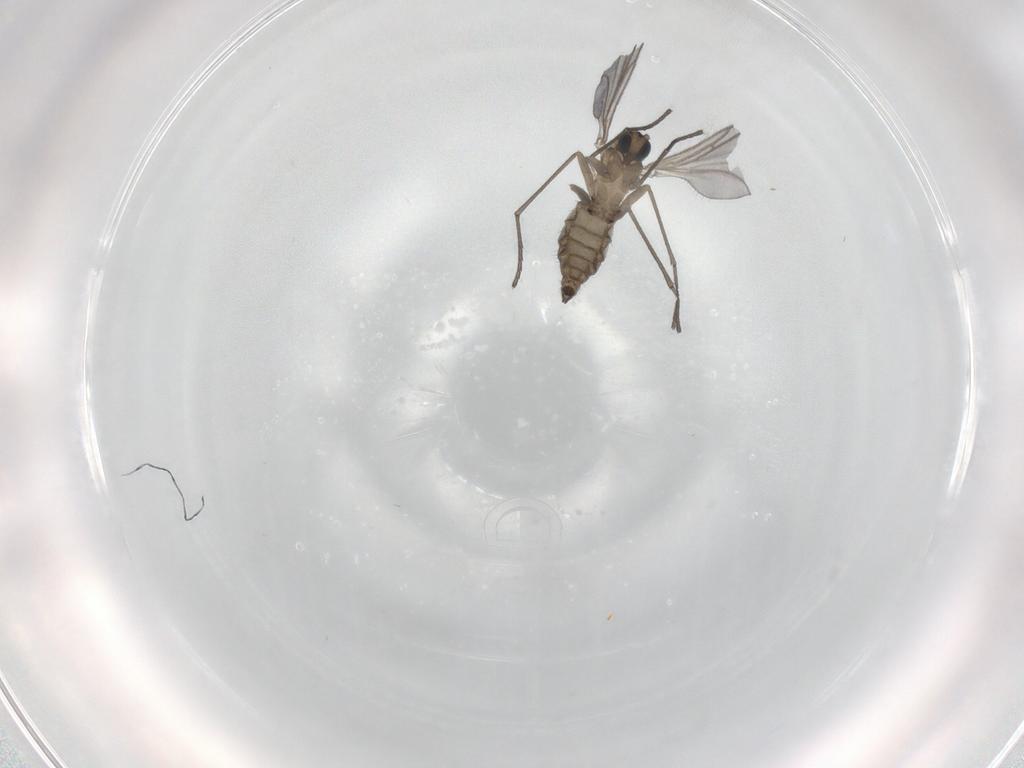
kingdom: Animalia
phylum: Arthropoda
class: Insecta
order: Diptera
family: Sciaridae
